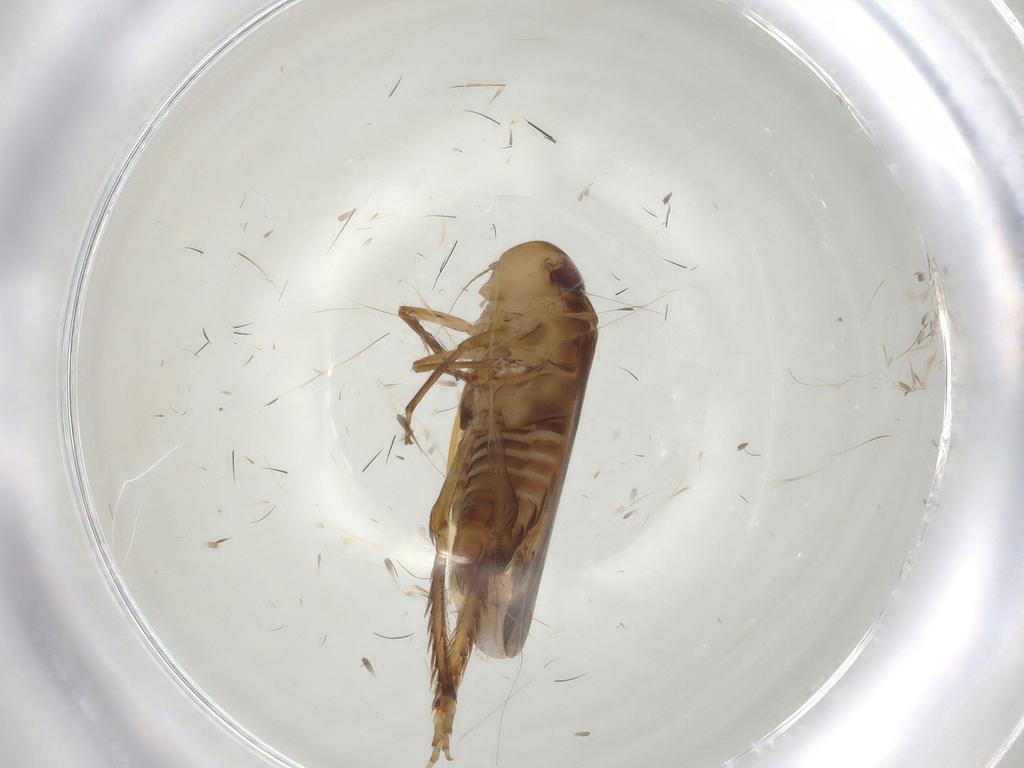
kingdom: Animalia
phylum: Arthropoda
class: Insecta
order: Hemiptera
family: Cicadellidae
